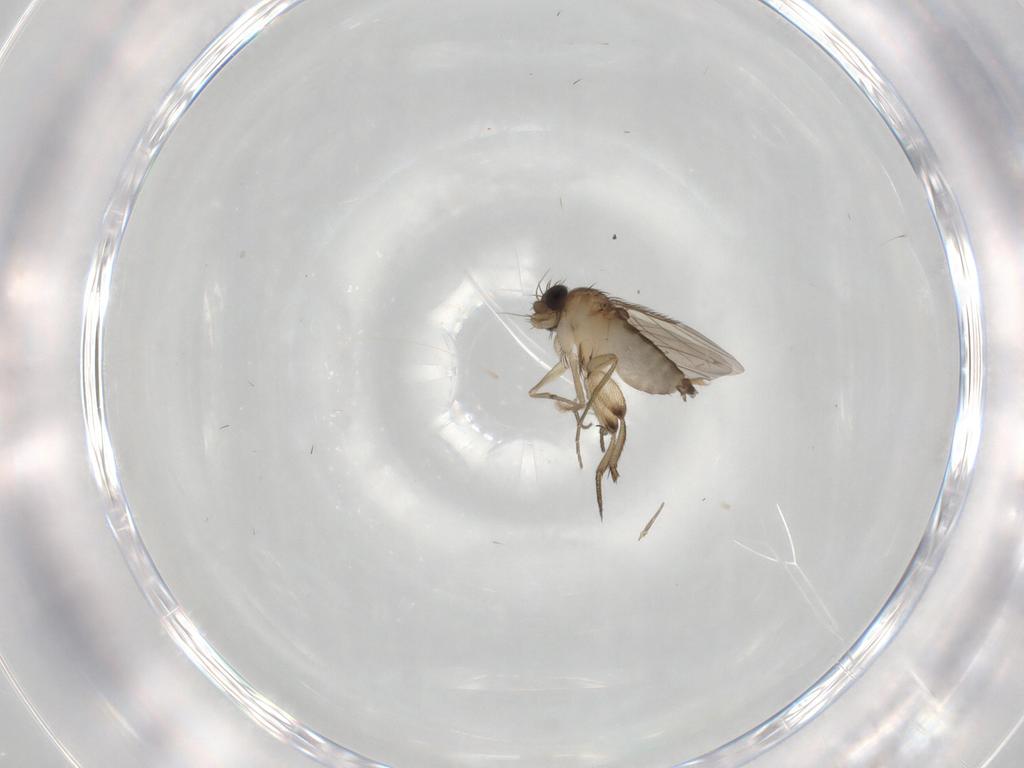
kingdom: Animalia
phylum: Arthropoda
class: Insecta
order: Diptera
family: Phoridae
